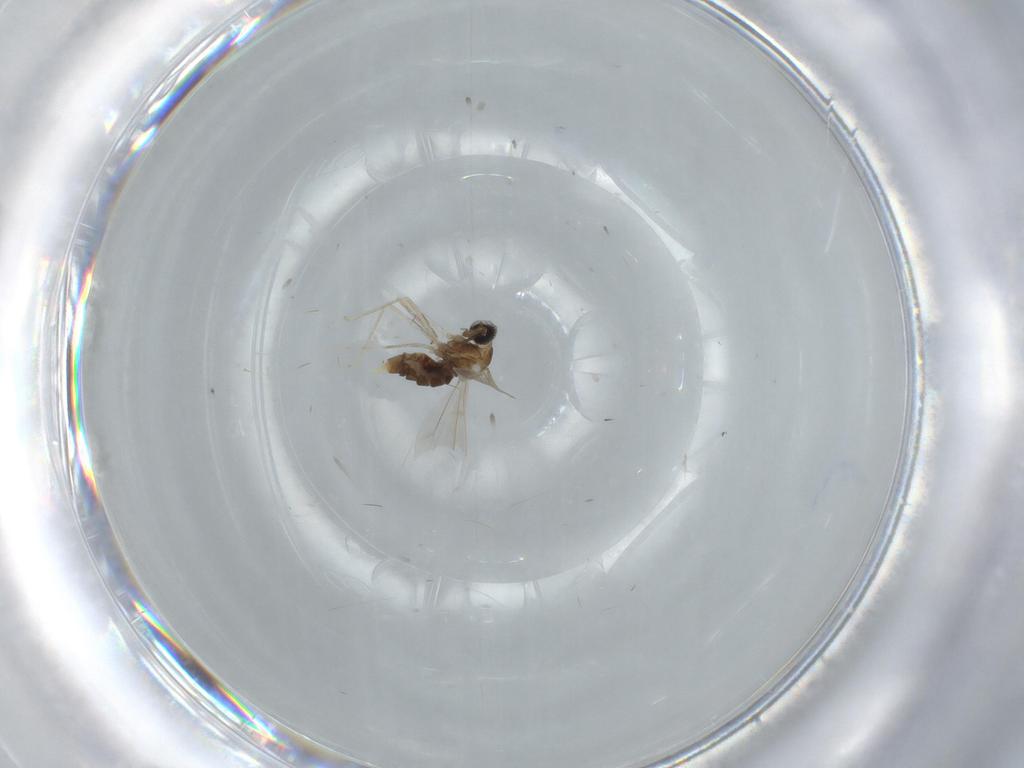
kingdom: Animalia
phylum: Arthropoda
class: Insecta
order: Diptera
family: Cecidomyiidae
